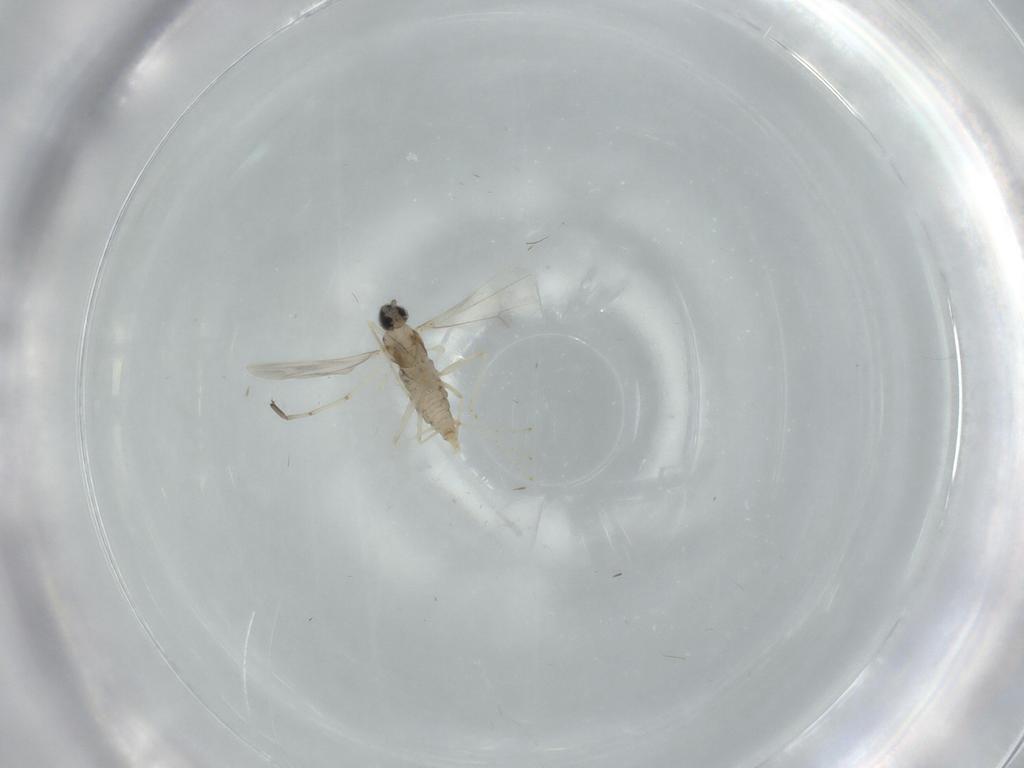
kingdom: Animalia
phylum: Arthropoda
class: Insecta
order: Diptera
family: Cecidomyiidae
